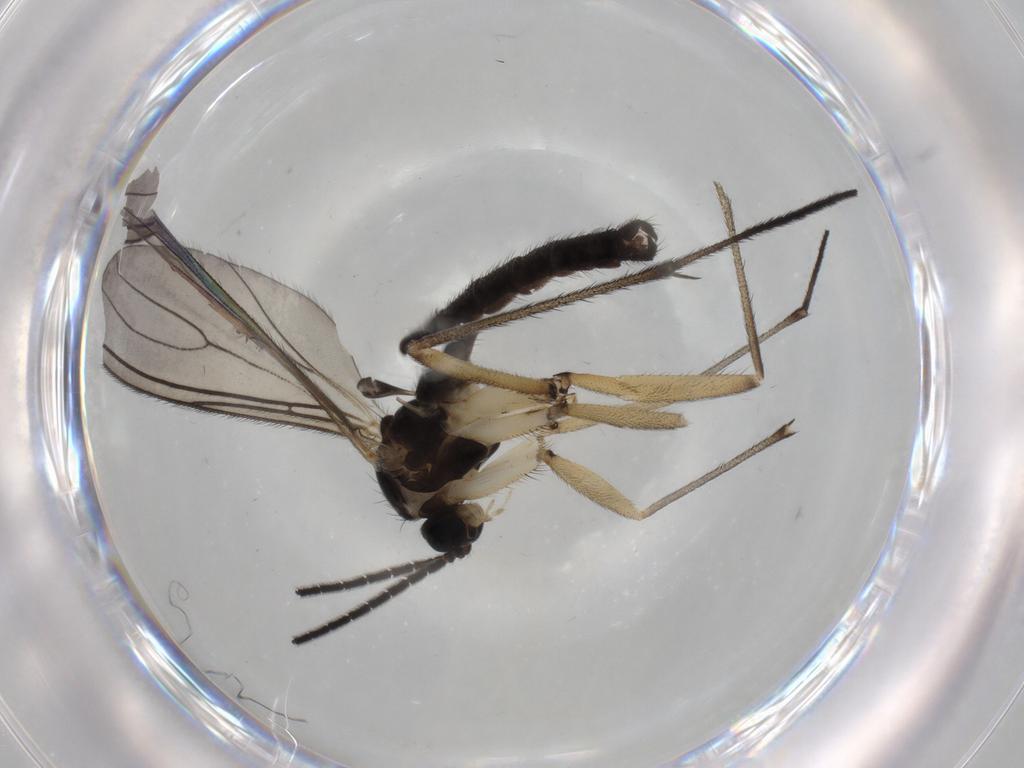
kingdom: Animalia
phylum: Arthropoda
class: Insecta
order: Diptera
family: Sciaridae
